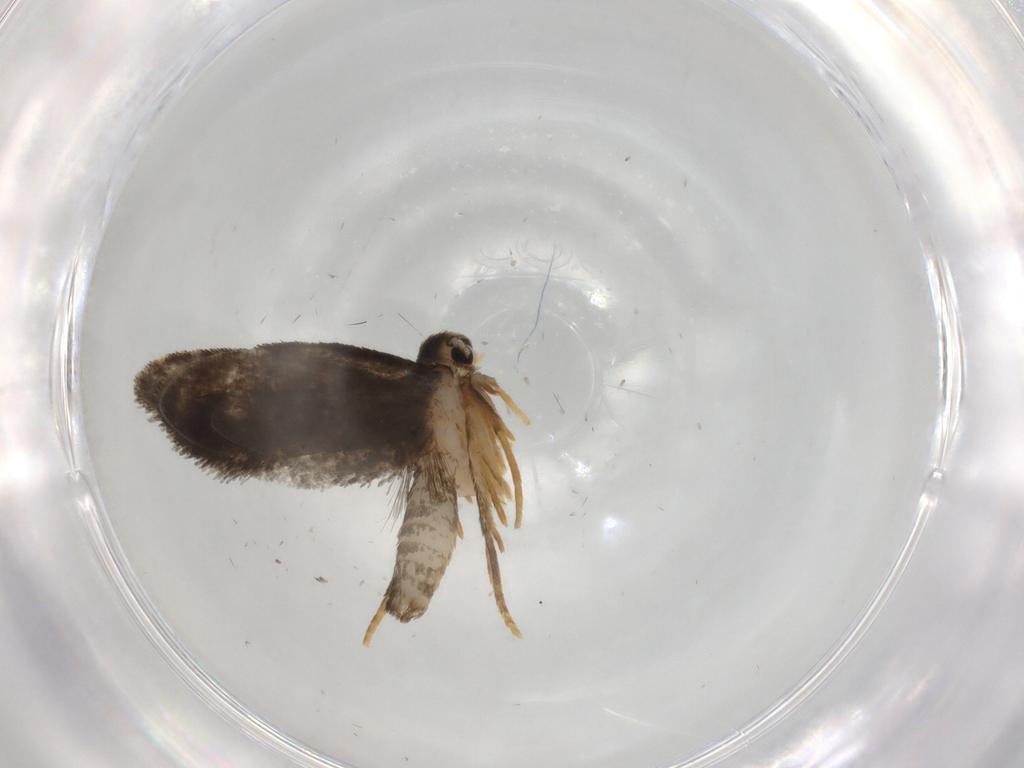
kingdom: Animalia
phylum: Arthropoda
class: Insecta
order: Lepidoptera
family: Psychidae
